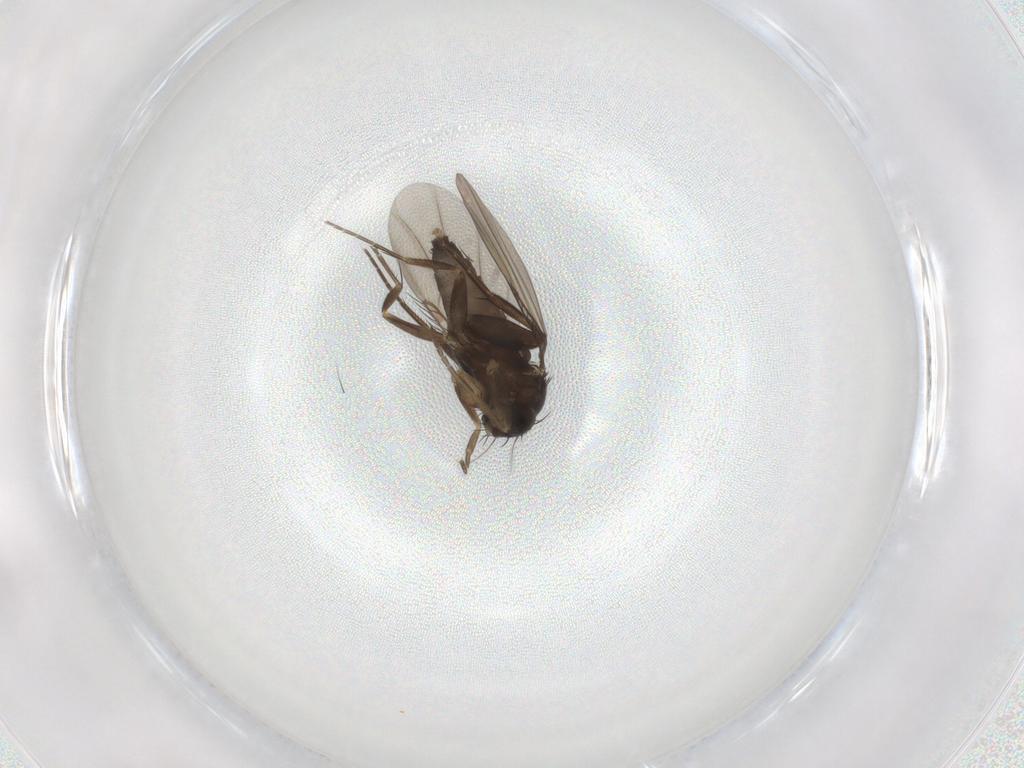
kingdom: Animalia
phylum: Arthropoda
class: Insecta
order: Diptera
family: Phoridae
